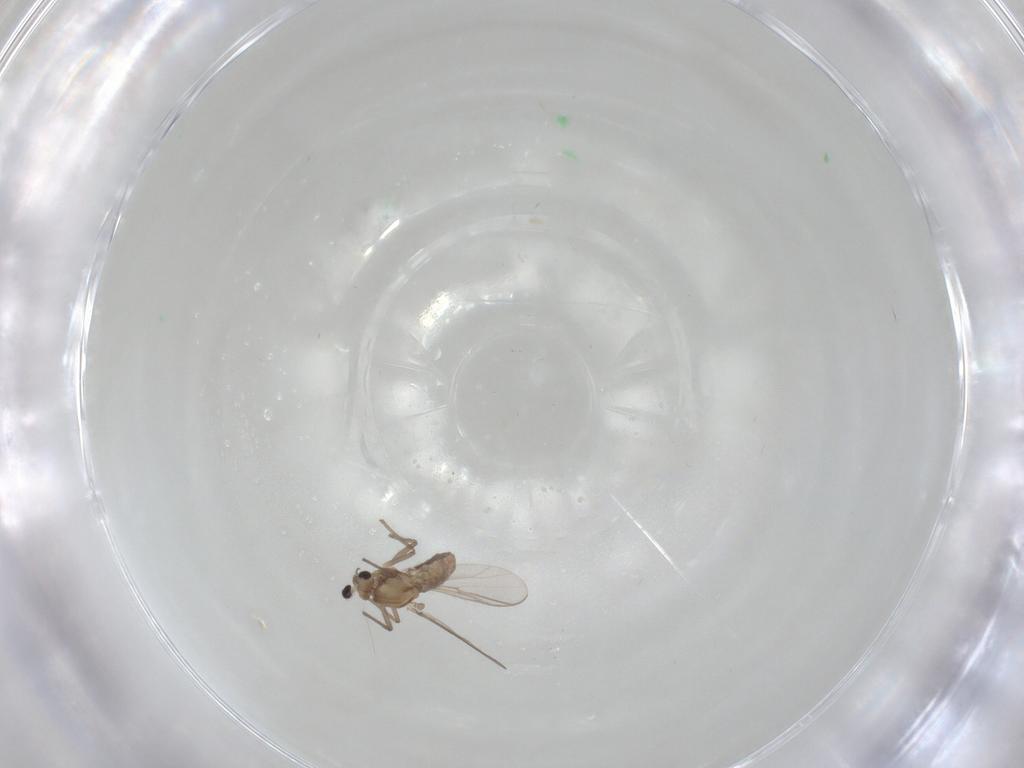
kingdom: Animalia
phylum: Arthropoda
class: Insecta
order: Diptera
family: Chironomidae
